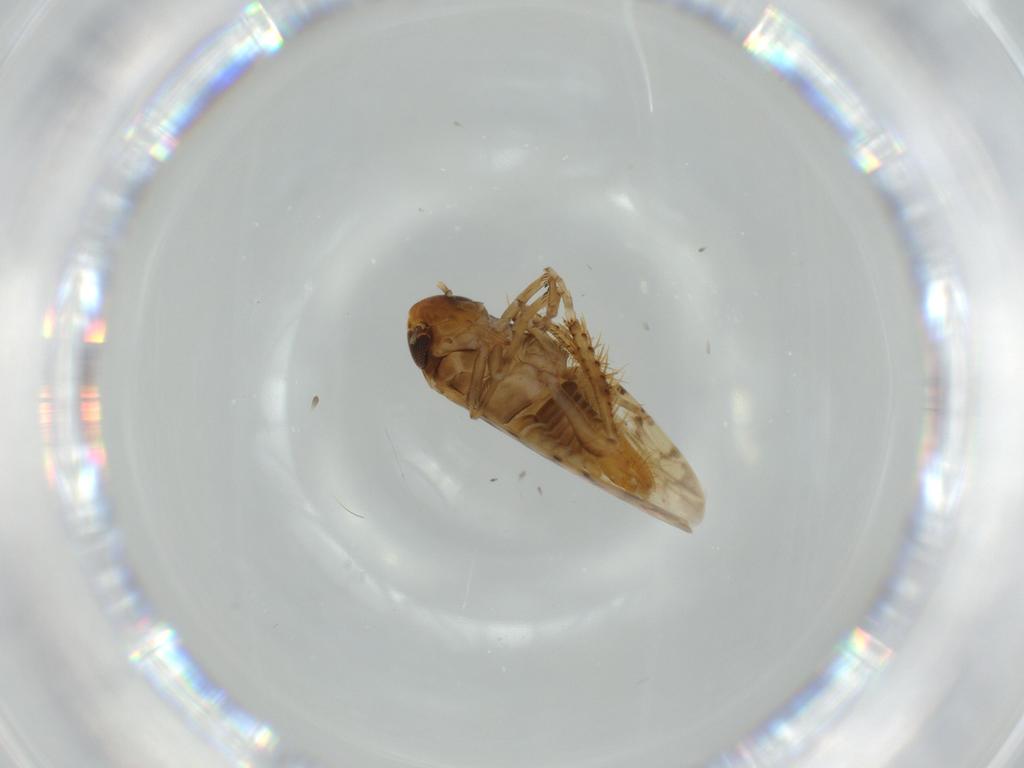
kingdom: Animalia
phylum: Arthropoda
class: Insecta
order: Hemiptera
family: Cicadellidae
